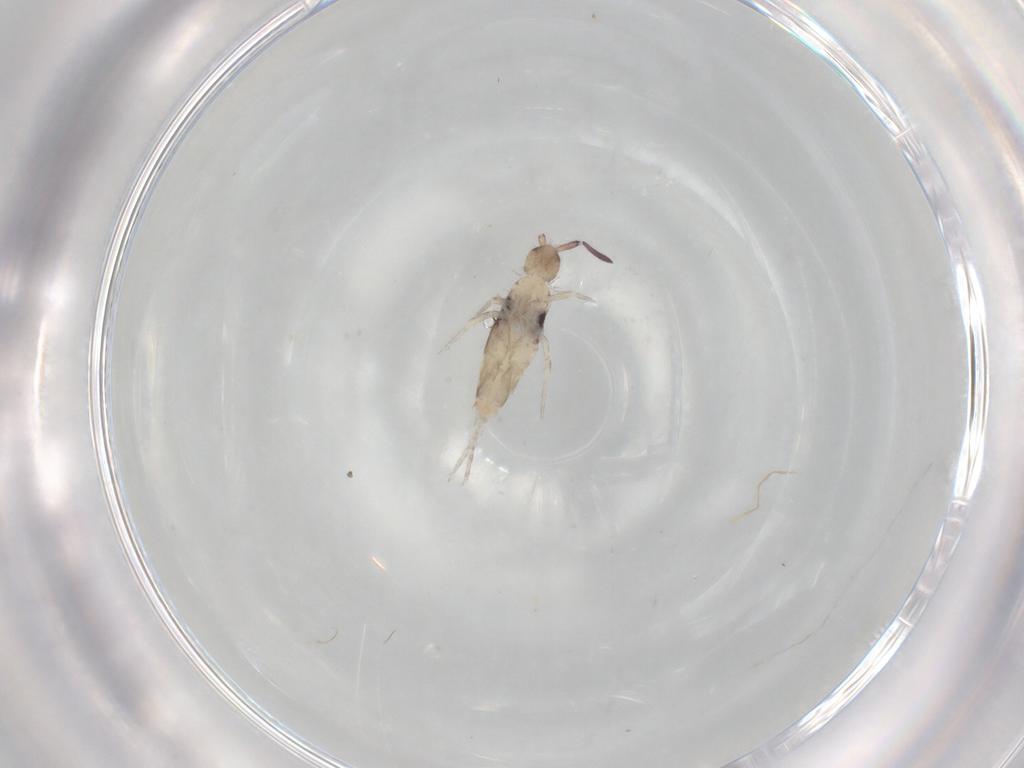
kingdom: Animalia
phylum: Arthropoda
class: Collembola
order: Entomobryomorpha
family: Entomobryidae
